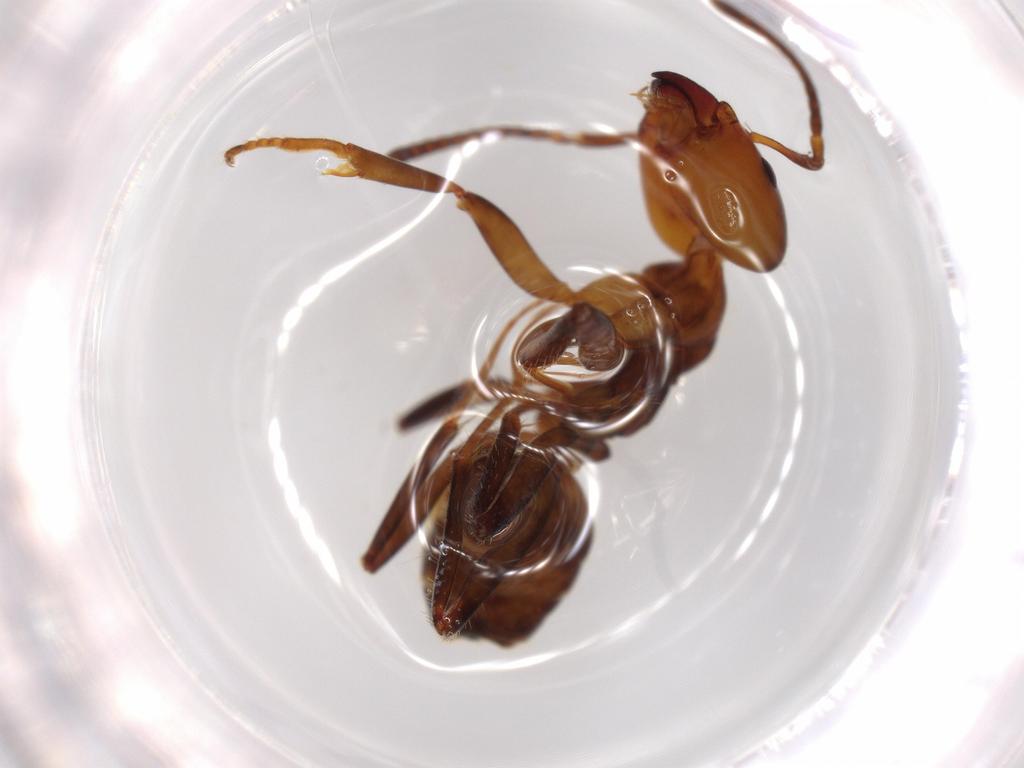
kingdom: Animalia
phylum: Arthropoda
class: Insecta
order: Hymenoptera
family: Formicidae
